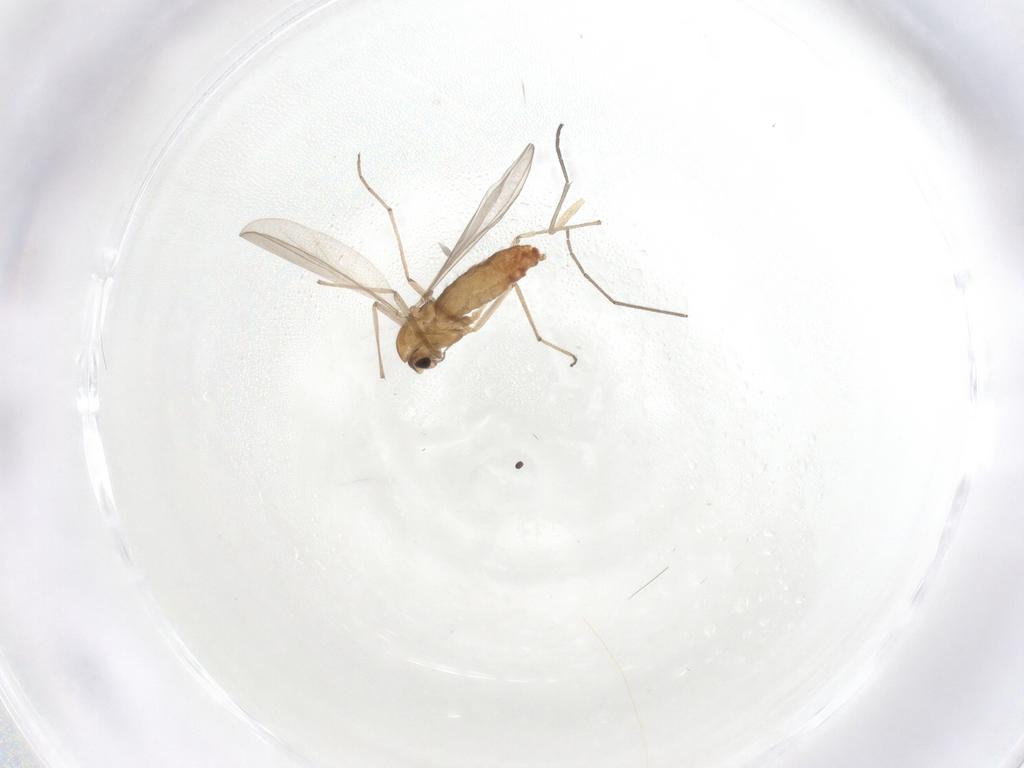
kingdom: Animalia
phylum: Arthropoda
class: Insecta
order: Diptera
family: Chironomidae
